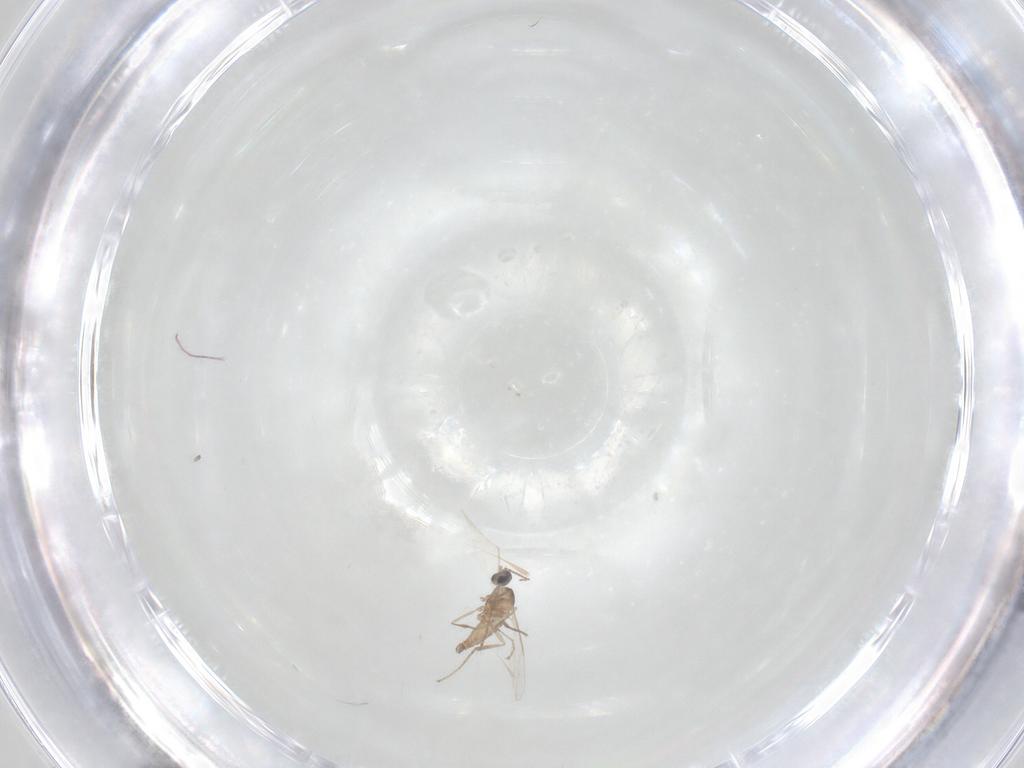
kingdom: Animalia
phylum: Arthropoda
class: Insecta
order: Diptera
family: Cecidomyiidae
